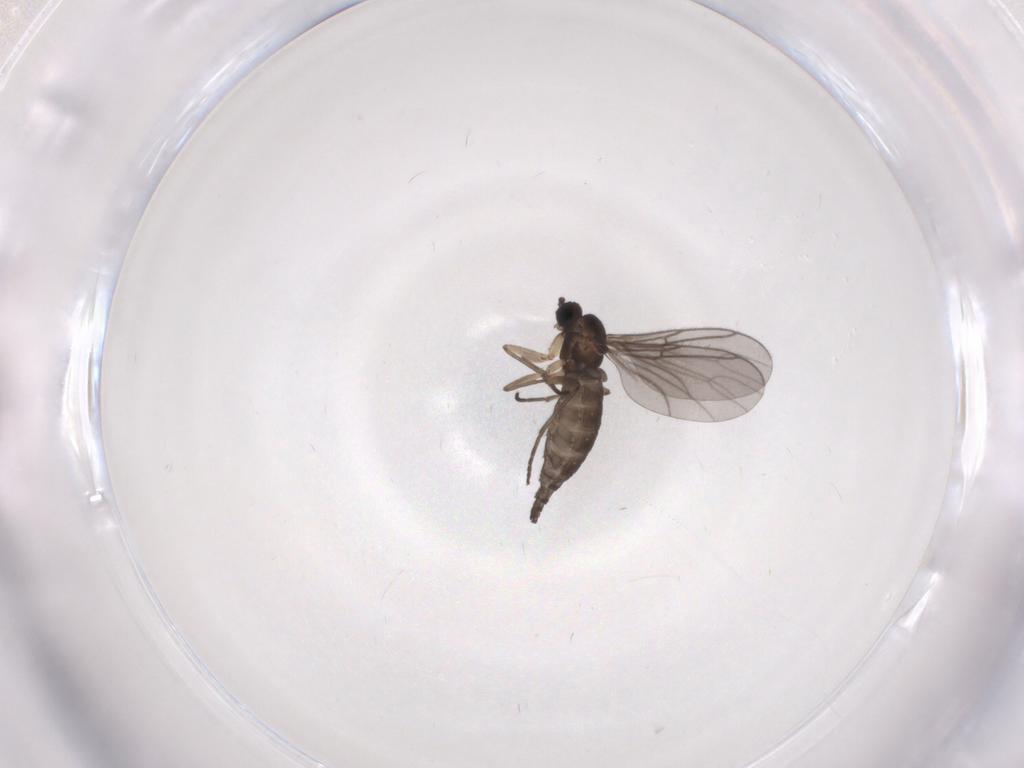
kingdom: Animalia
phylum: Arthropoda
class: Insecta
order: Diptera
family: Sciaridae
